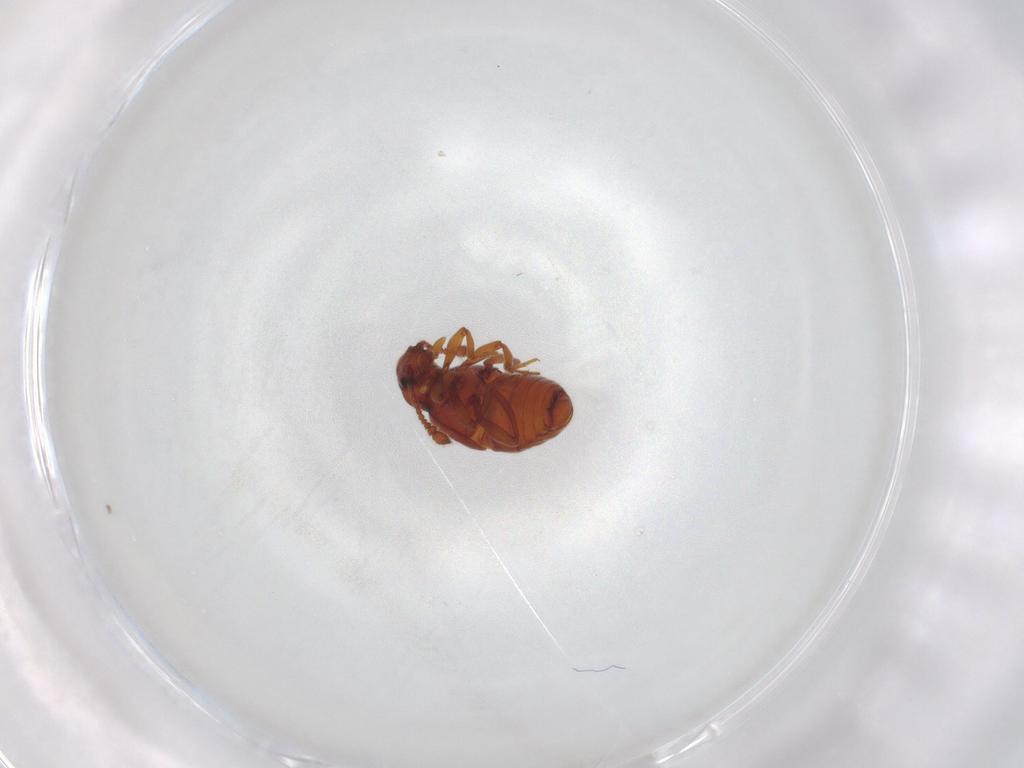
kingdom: Animalia
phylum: Arthropoda
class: Insecta
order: Coleoptera
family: Staphylinidae
